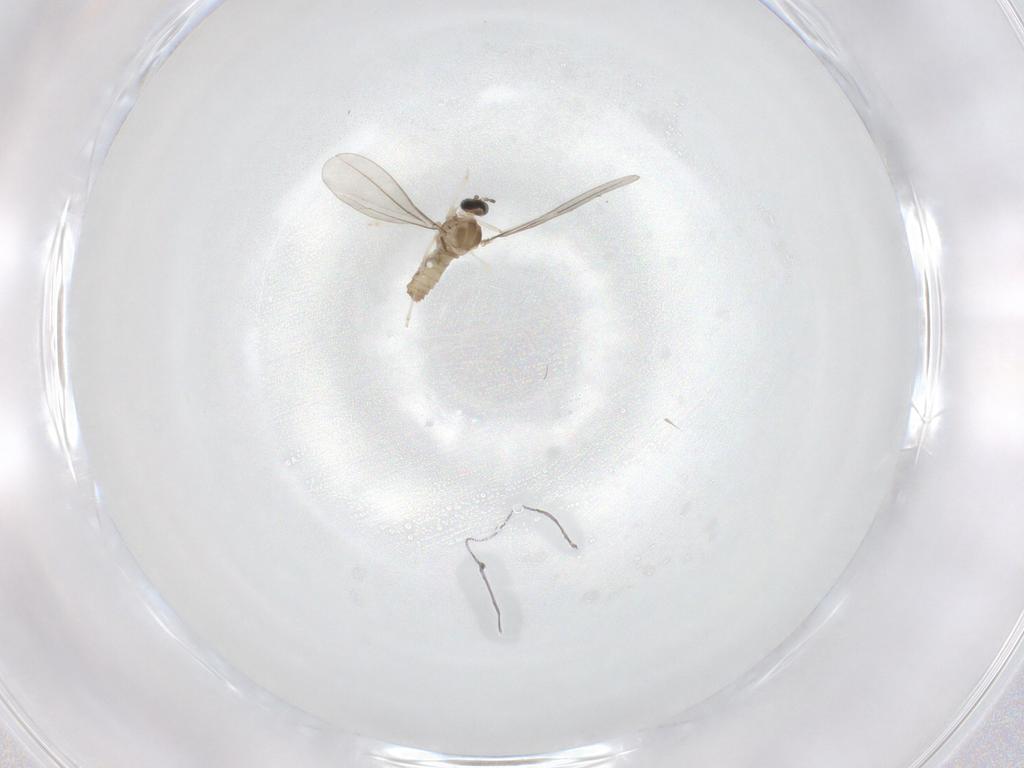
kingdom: Animalia
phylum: Arthropoda
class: Insecta
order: Diptera
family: Cecidomyiidae
